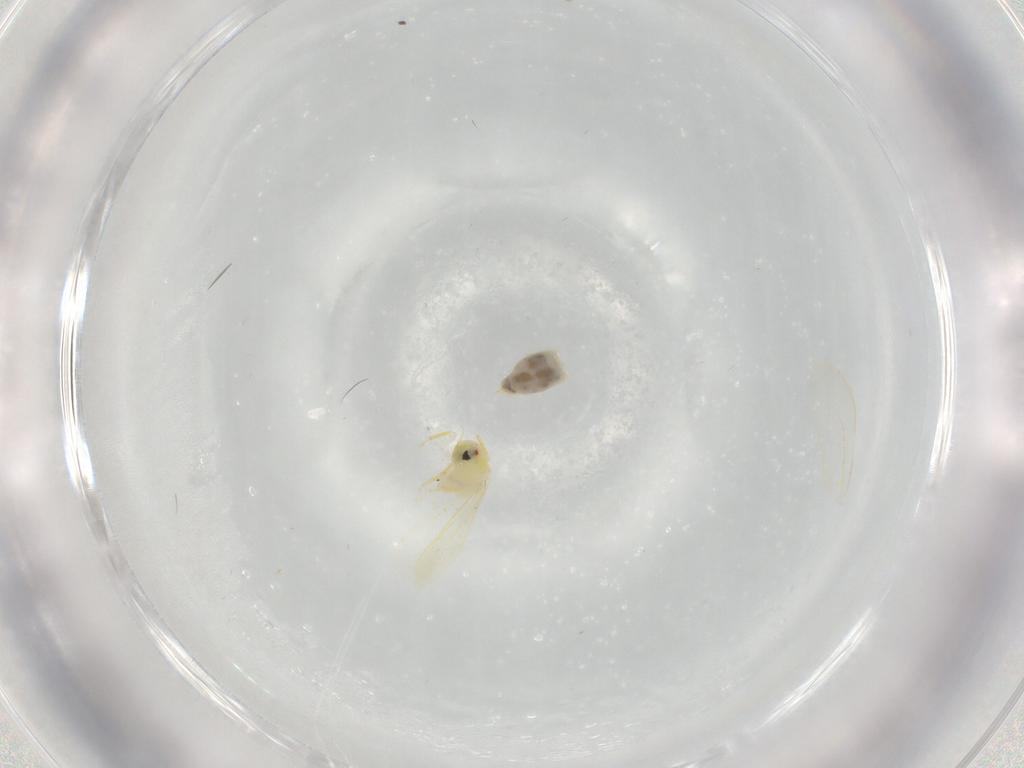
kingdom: Animalia
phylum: Arthropoda
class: Insecta
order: Hemiptera
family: Aleyrodidae
